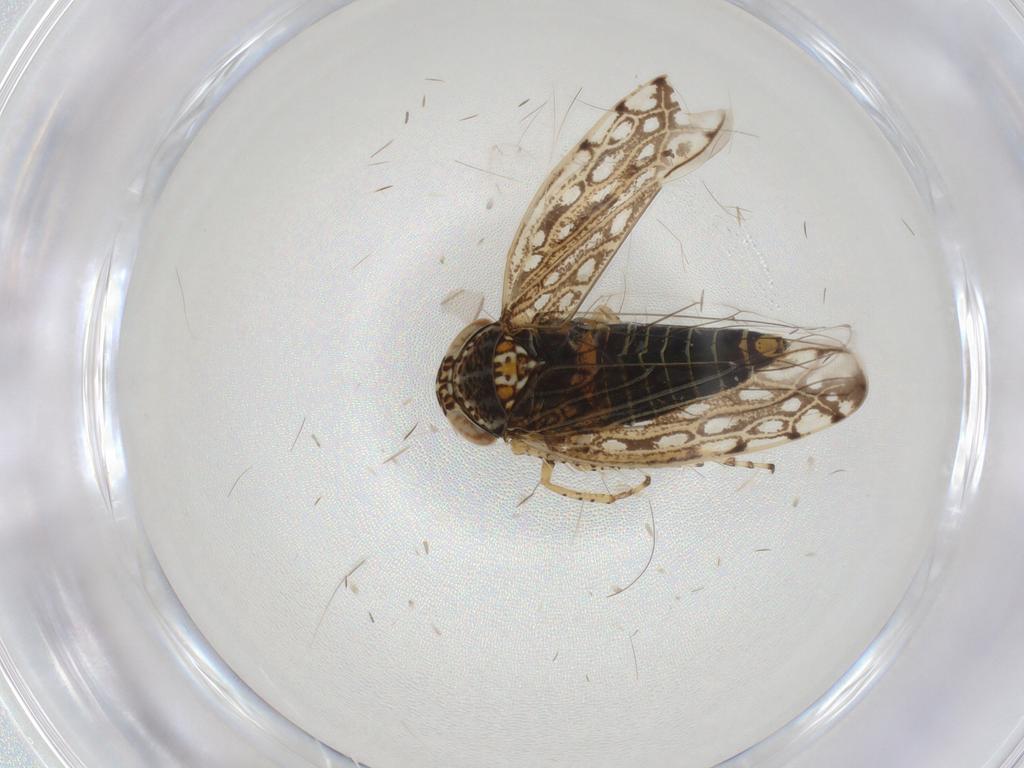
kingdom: Animalia
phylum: Arthropoda
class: Insecta
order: Hemiptera
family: Cicadellidae
